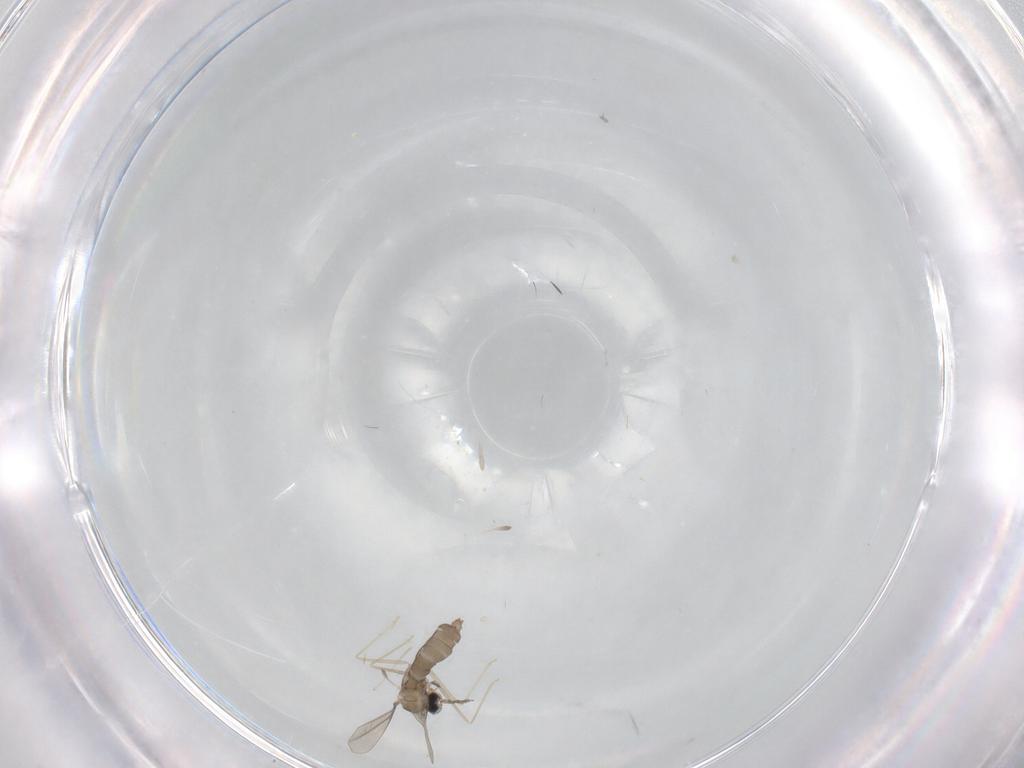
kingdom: Animalia
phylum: Arthropoda
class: Insecta
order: Diptera
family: Chironomidae
